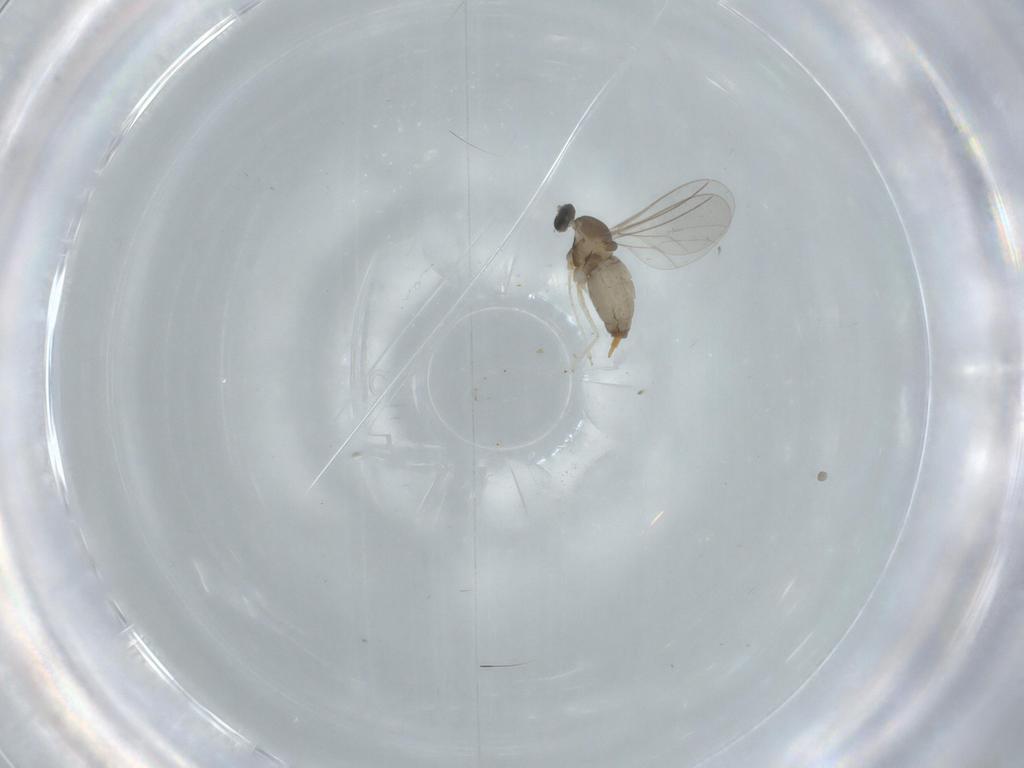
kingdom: Animalia
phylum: Arthropoda
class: Insecta
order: Diptera
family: Cecidomyiidae
